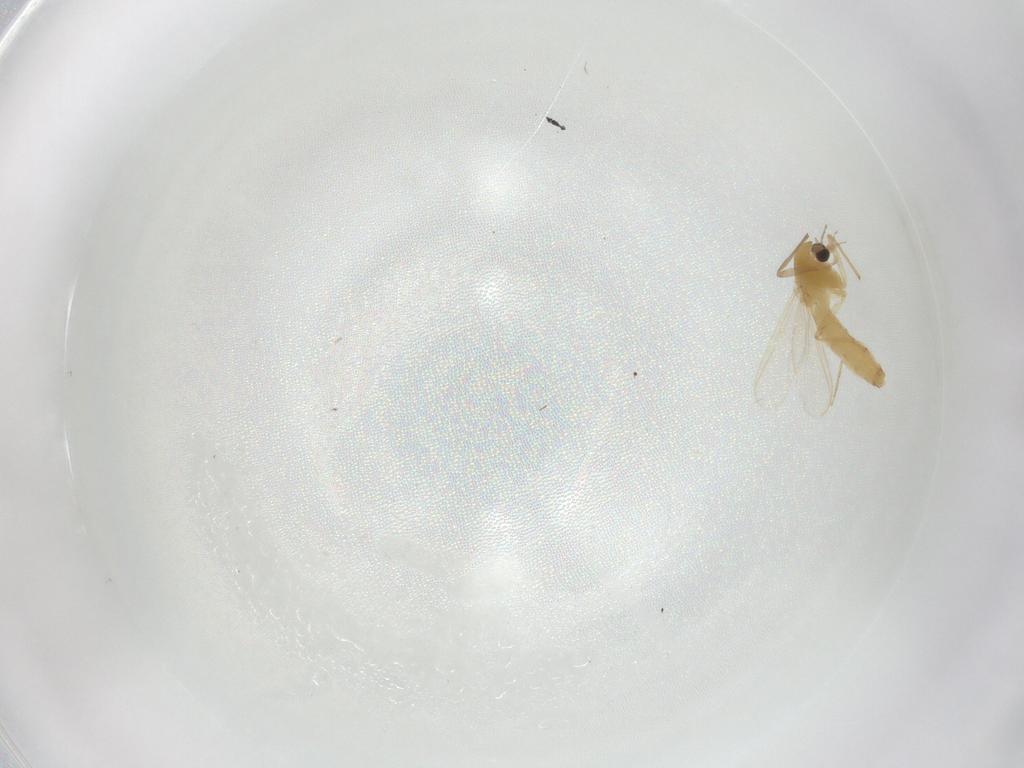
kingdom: Animalia
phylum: Arthropoda
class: Insecta
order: Diptera
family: Chironomidae
